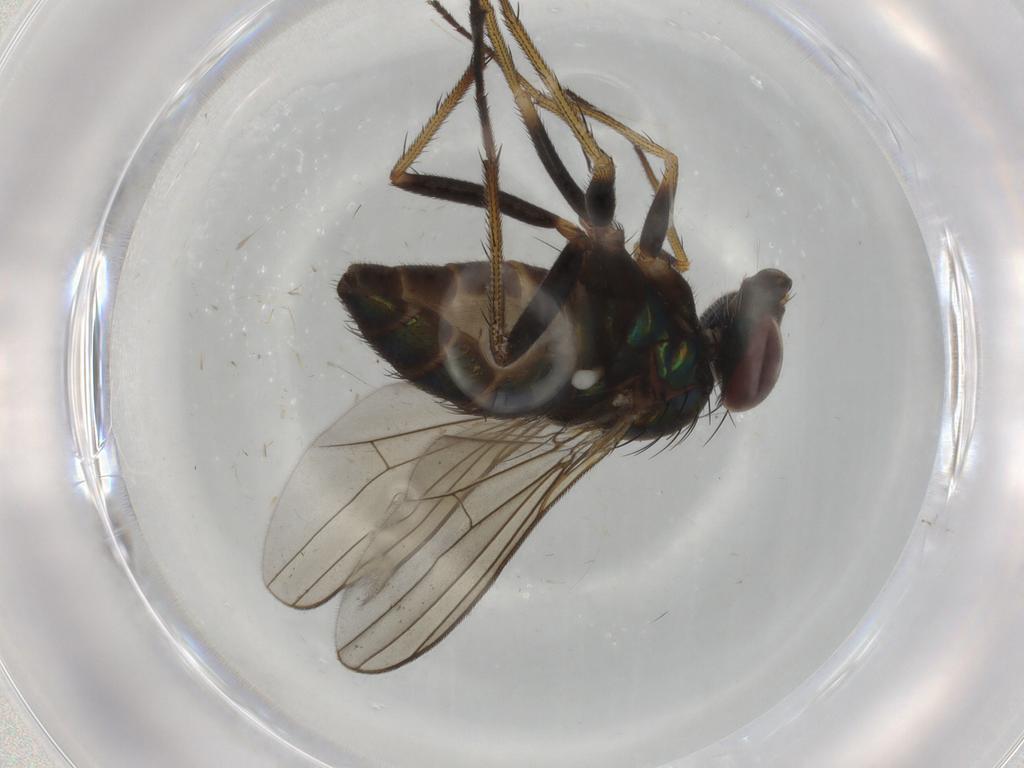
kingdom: Animalia
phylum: Arthropoda
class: Insecta
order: Diptera
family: Dolichopodidae
